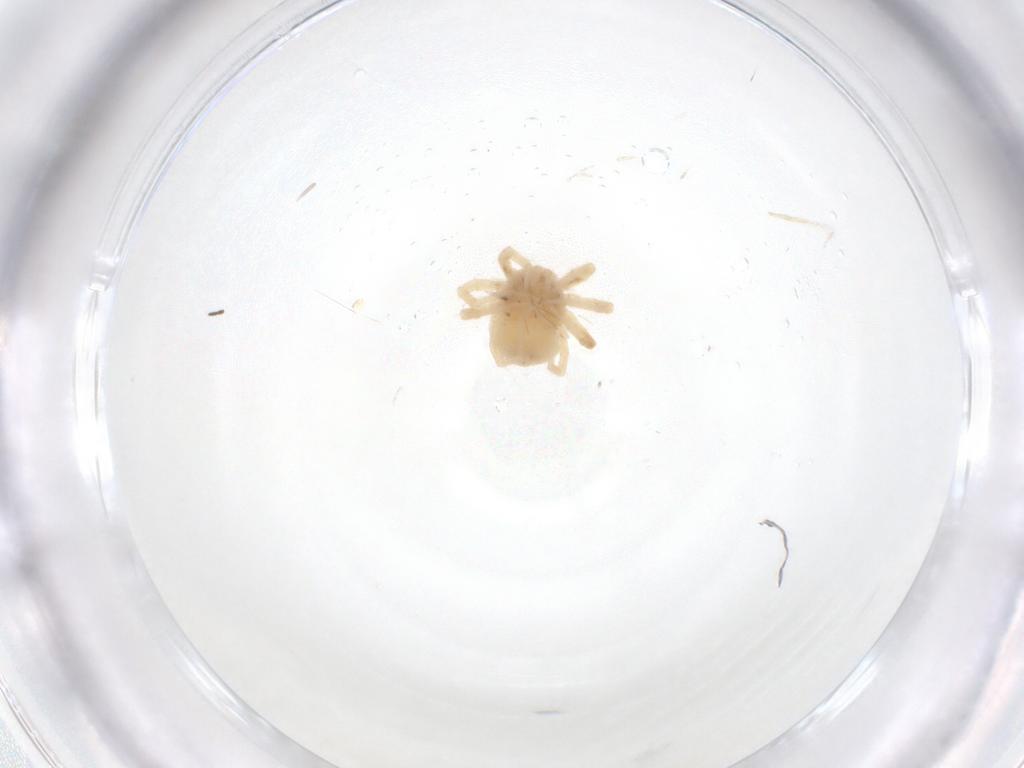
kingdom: Animalia
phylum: Arthropoda
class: Arachnida
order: Trombidiformes
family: Anystidae
